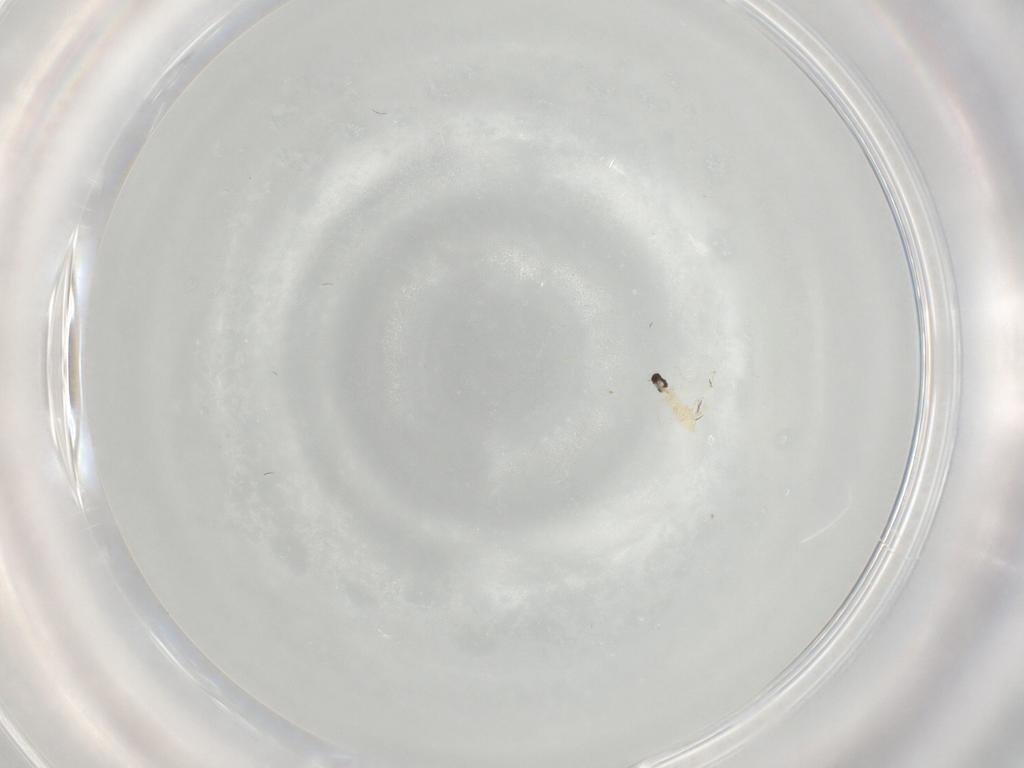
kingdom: Animalia
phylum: Arthropoda
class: Insecta
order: Diptera
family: Cecidomyiidae
